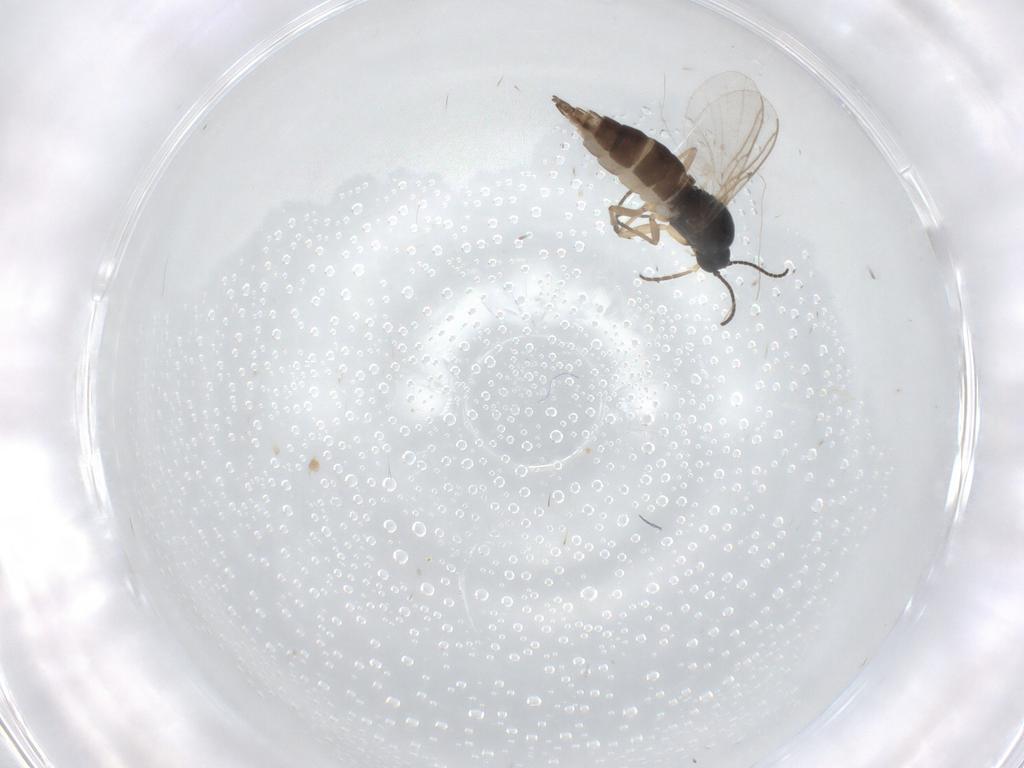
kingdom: Animalia
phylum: Arthropoda
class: Insecta
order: Diptera
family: Sciaridae
